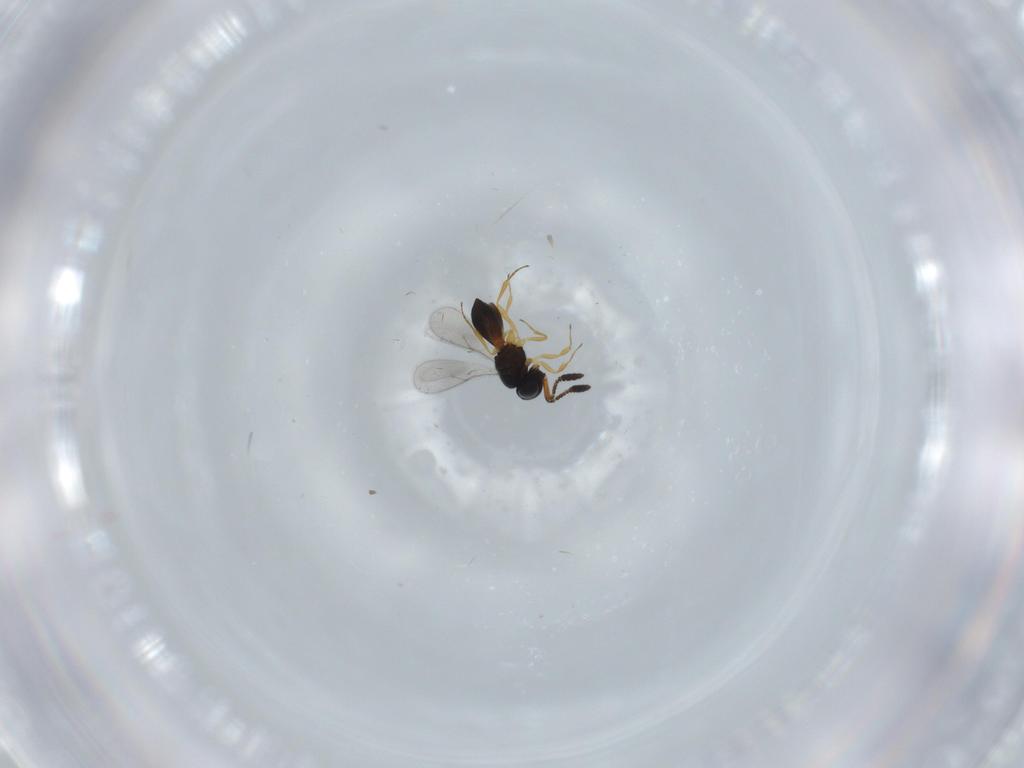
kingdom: Animalia
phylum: Arthropoda
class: Insecta
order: Hymenoptera
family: Scelionidae
